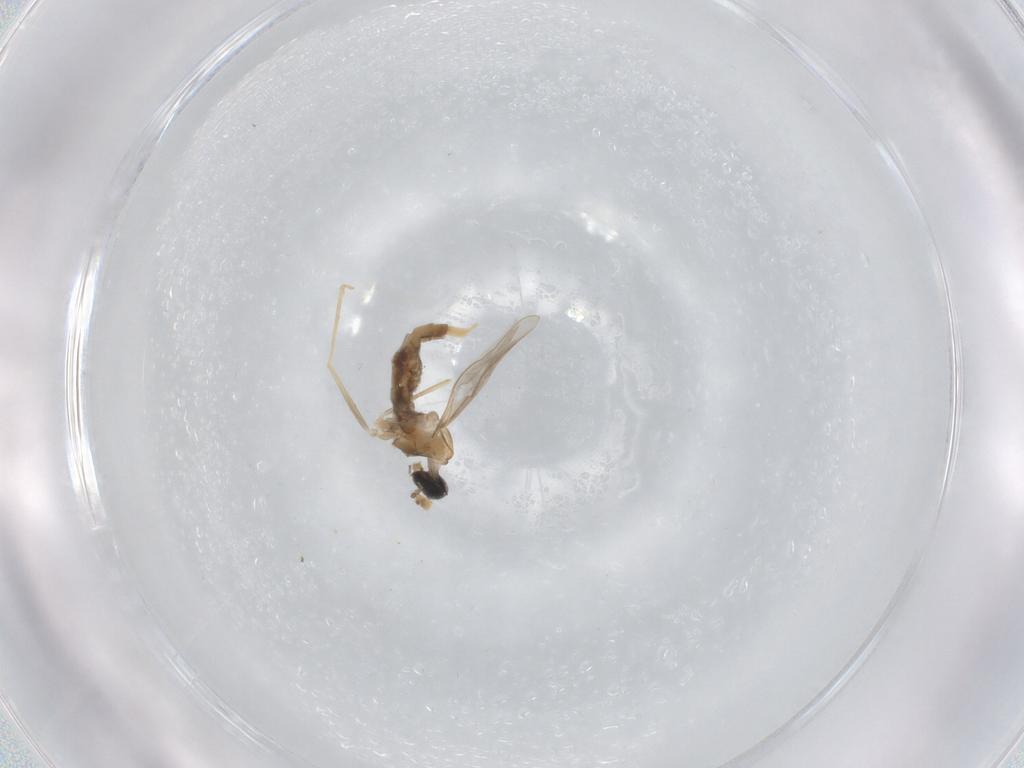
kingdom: Animalia
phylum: Arthropoda
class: Insecta
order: Diptera
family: Cecidomyiidae
